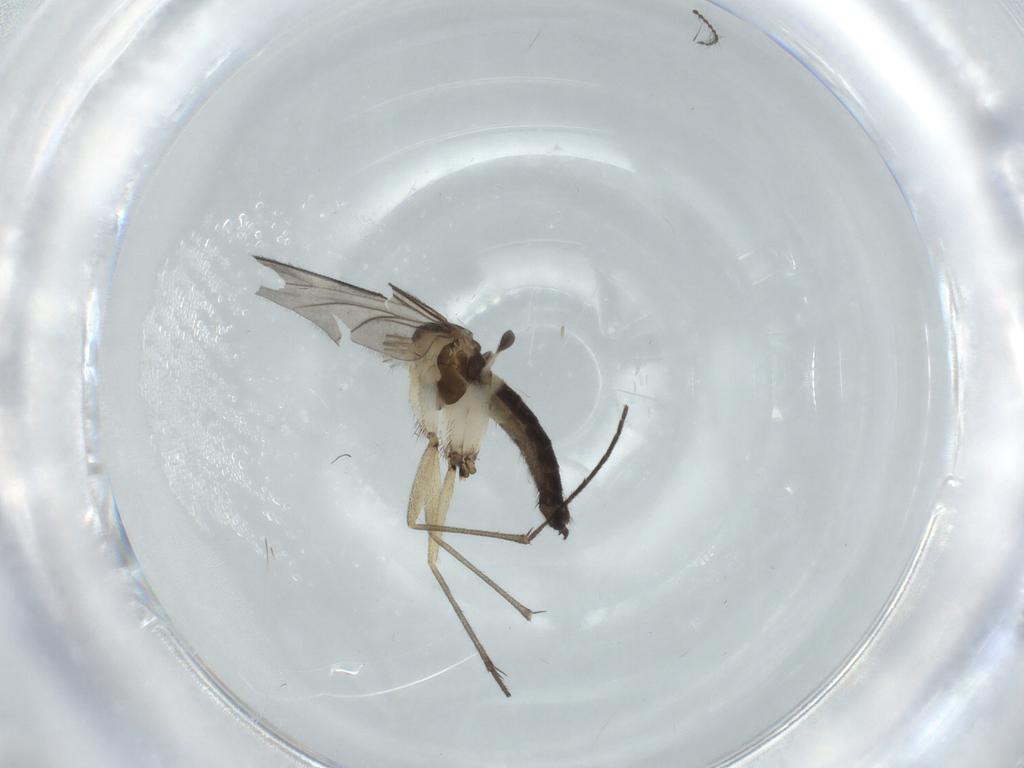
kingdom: Animalia
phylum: Arthropoda
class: Insecta
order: Diptera
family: Sciaridae
